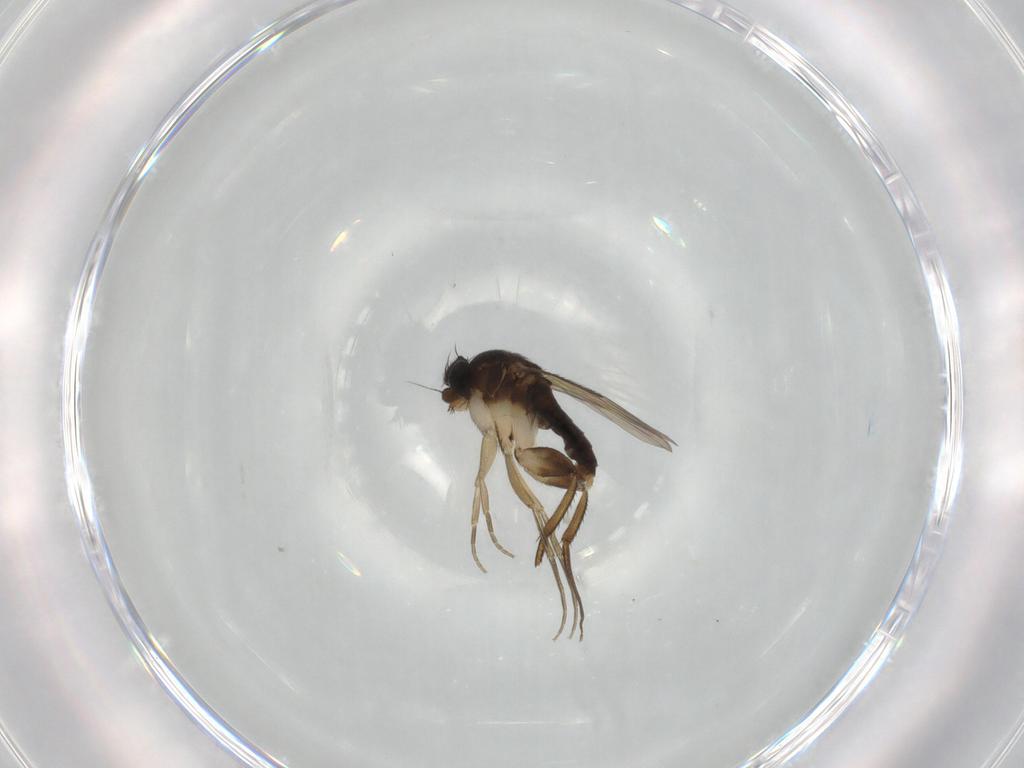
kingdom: Animalia
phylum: Arthropoda
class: Insecta
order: Diptera
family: Phoridae
